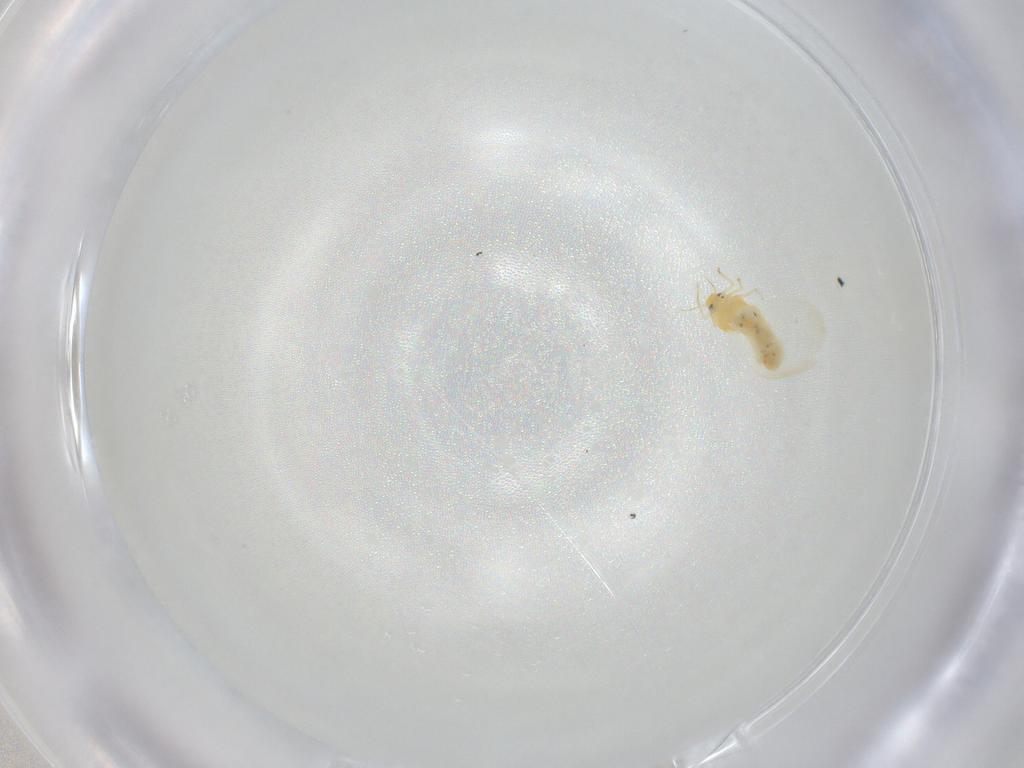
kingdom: Animalia
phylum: Arthropoda
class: Insecta
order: Hemiptera
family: Aleyrodidae
